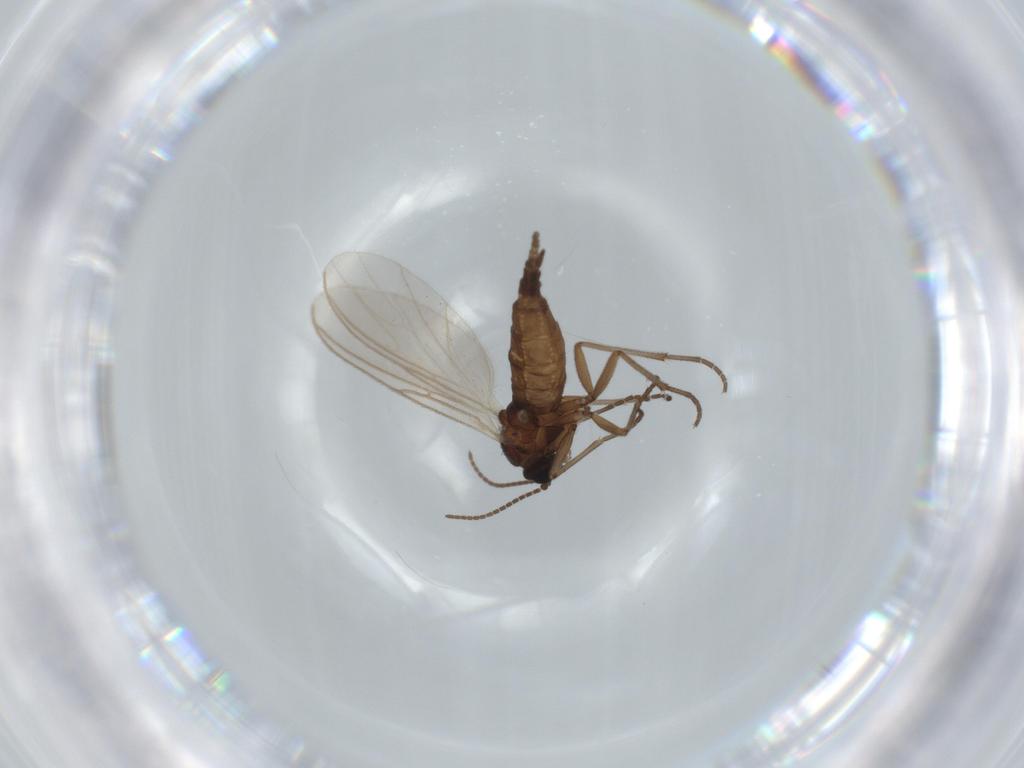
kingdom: Animalia
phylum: Arthropoda
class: Insecta
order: Diptera
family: Sciaridae
